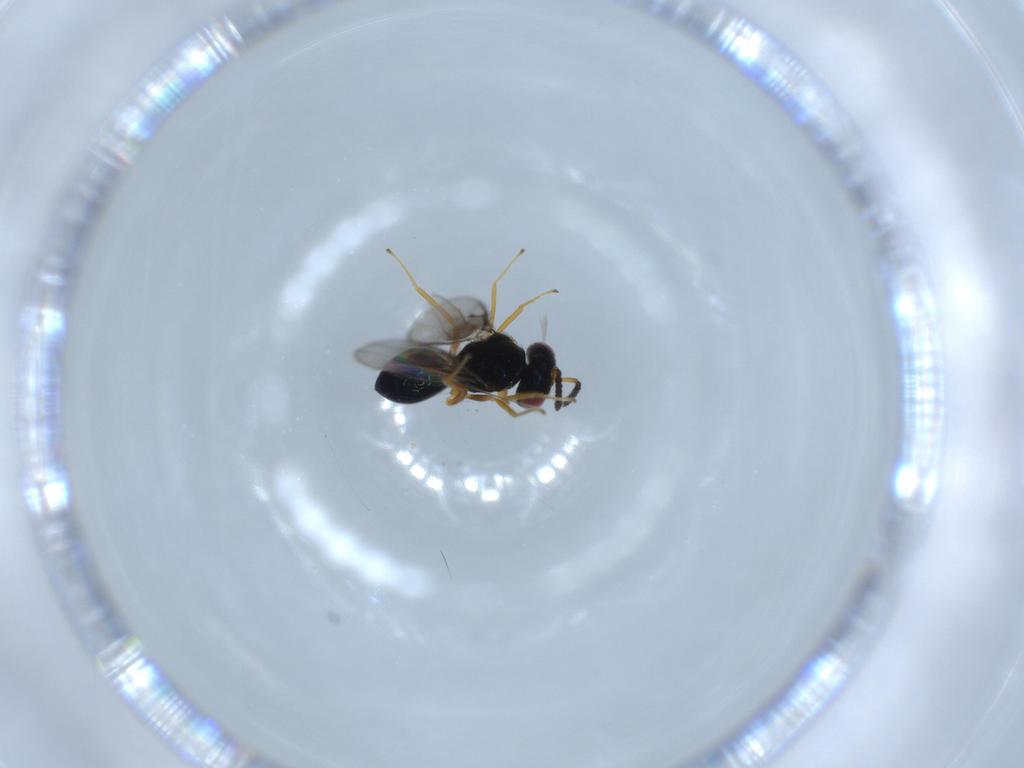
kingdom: Animalia
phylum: Arthropoda
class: Insecta
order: Hymenoptera
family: Pteromalidae
